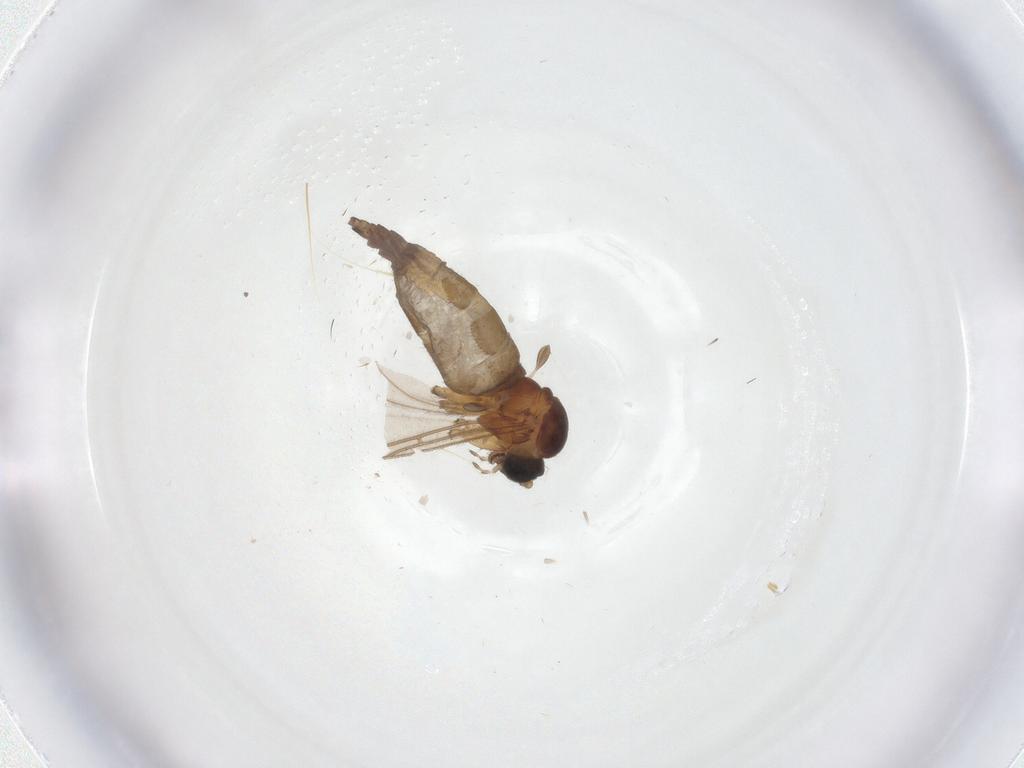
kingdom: Animalia
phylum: Arthropoda
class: Insecta
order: Diptera
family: Sciaridae
